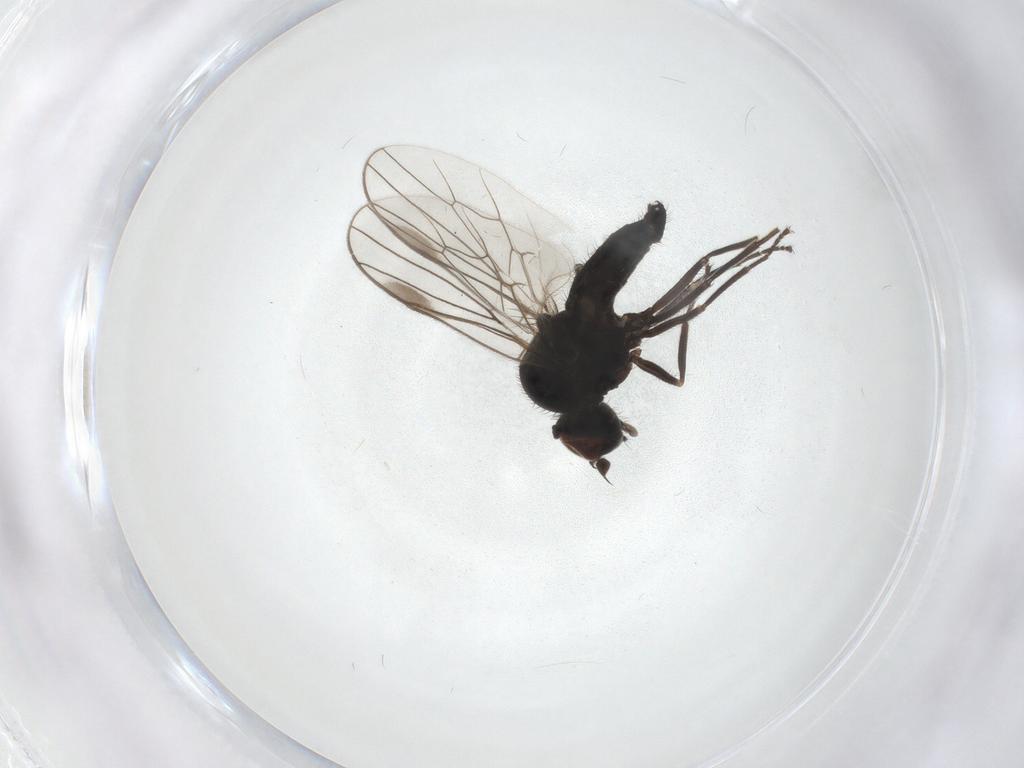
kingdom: Animalia
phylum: Arthropoda
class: Insecta
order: Diptera
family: Hybotidae
